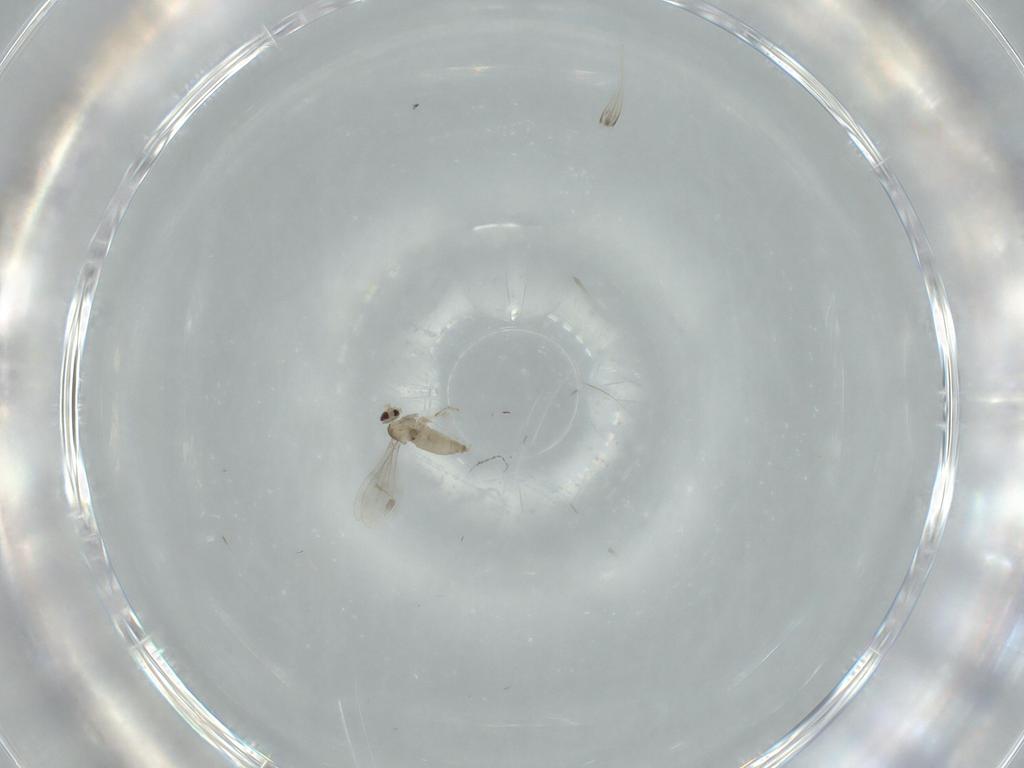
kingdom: Animalia
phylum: Arthropoda
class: Insecta
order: Diptera
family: Cecidomyiidae
